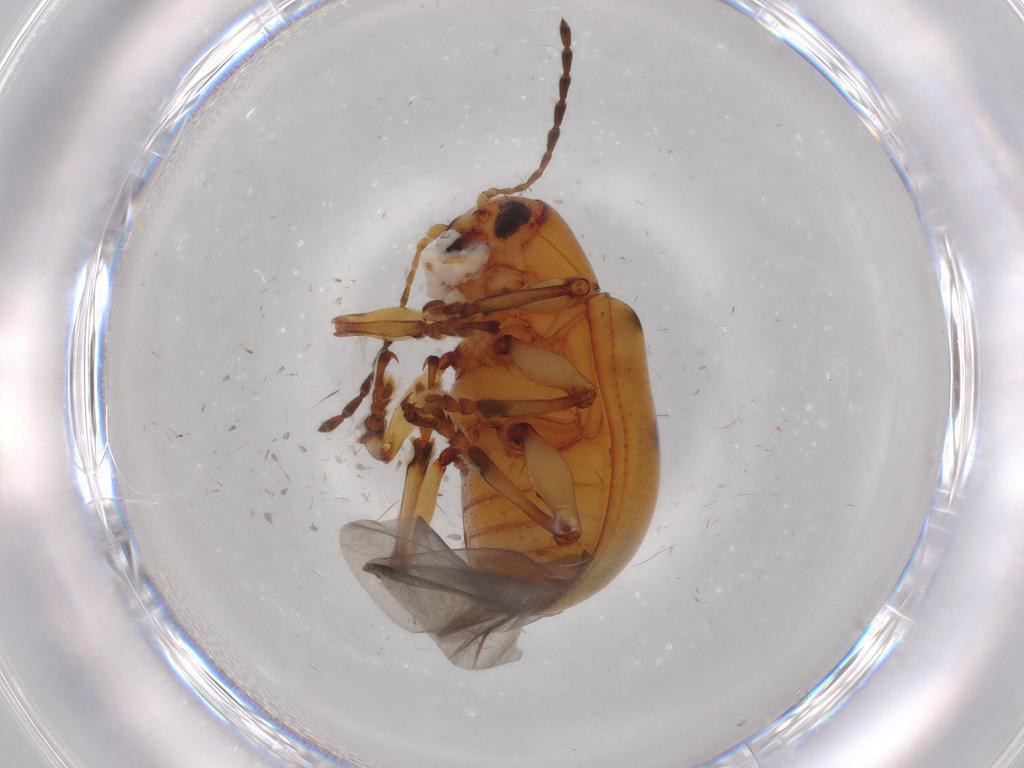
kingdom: Animalia
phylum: Arthropoda
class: Insecta
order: Coleoptera
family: Chrysomelidae
